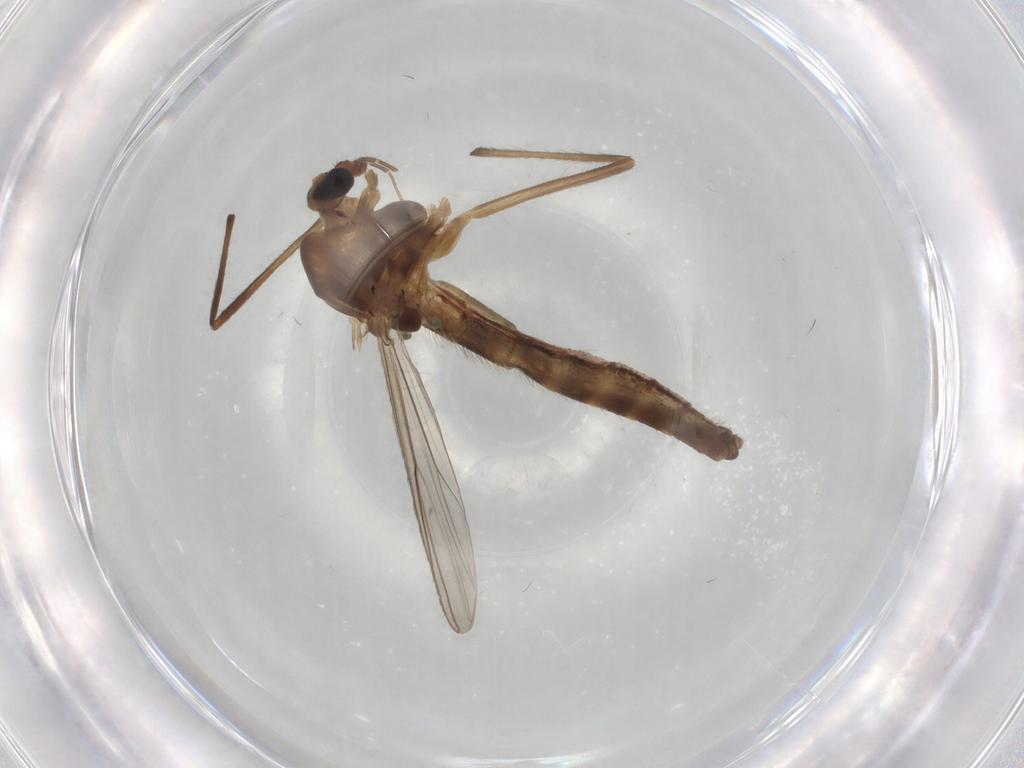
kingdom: Animalia
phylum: Arthropoda
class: Insecta
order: Diptera
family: Chironomidae
